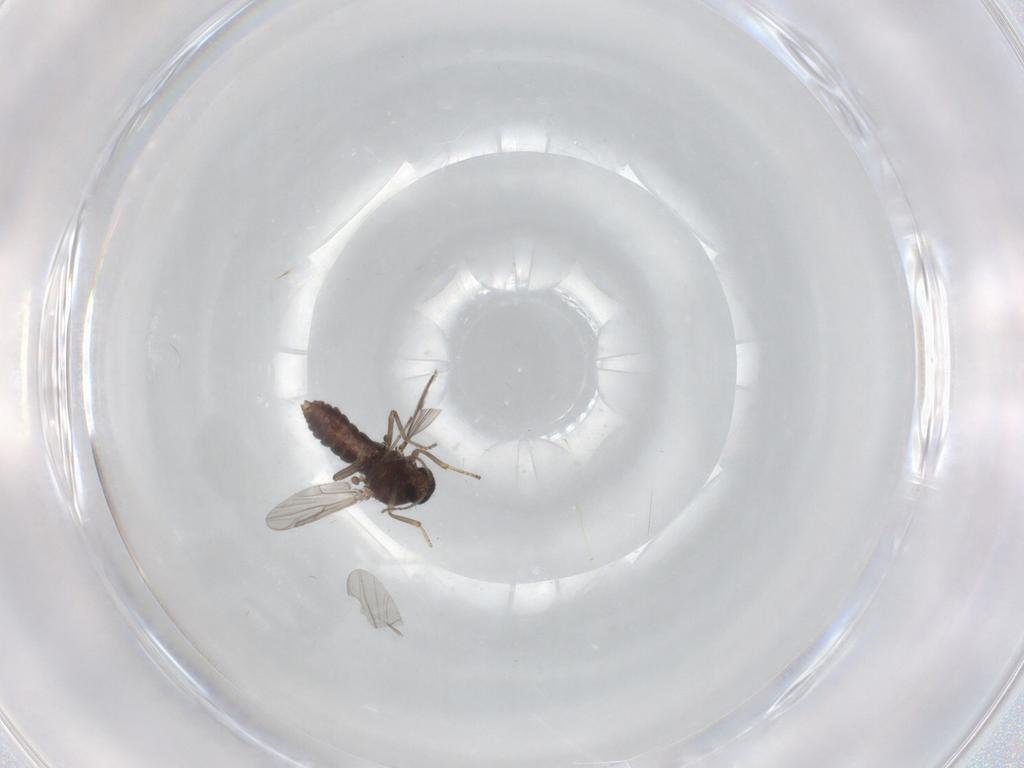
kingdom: Animalia
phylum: Arthropoda
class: Insecta
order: Diptera
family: Ceratopogonidae
